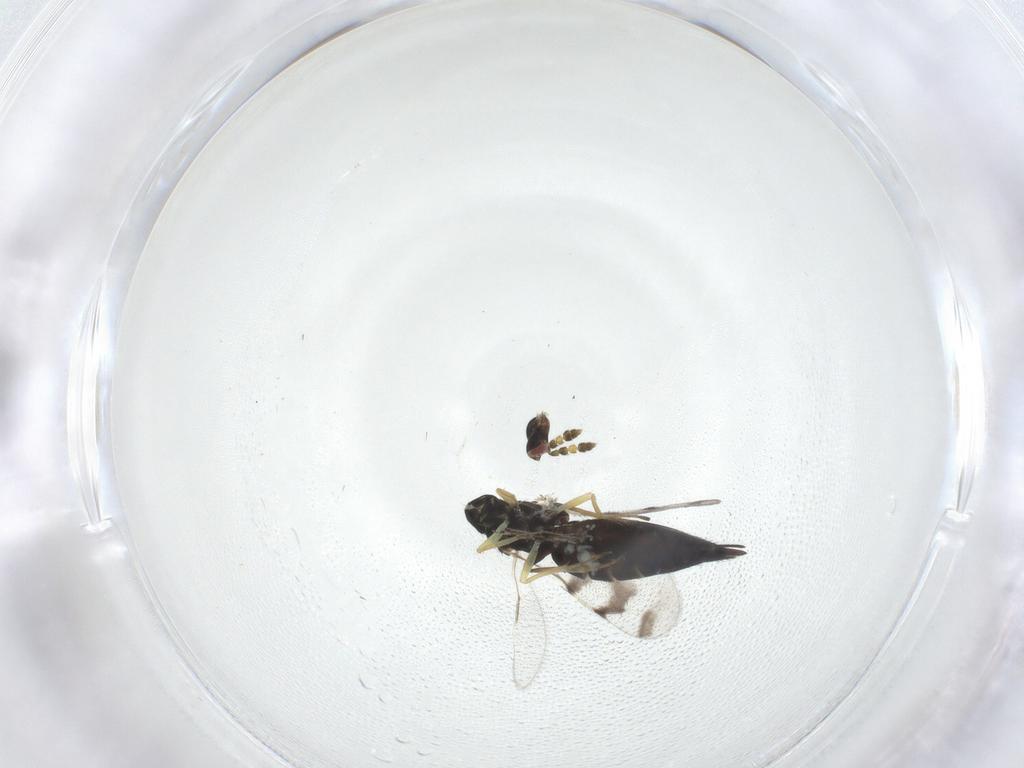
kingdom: Animalia
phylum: Arthropoda
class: Insecta
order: Hymenoptera
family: Eulophidae
